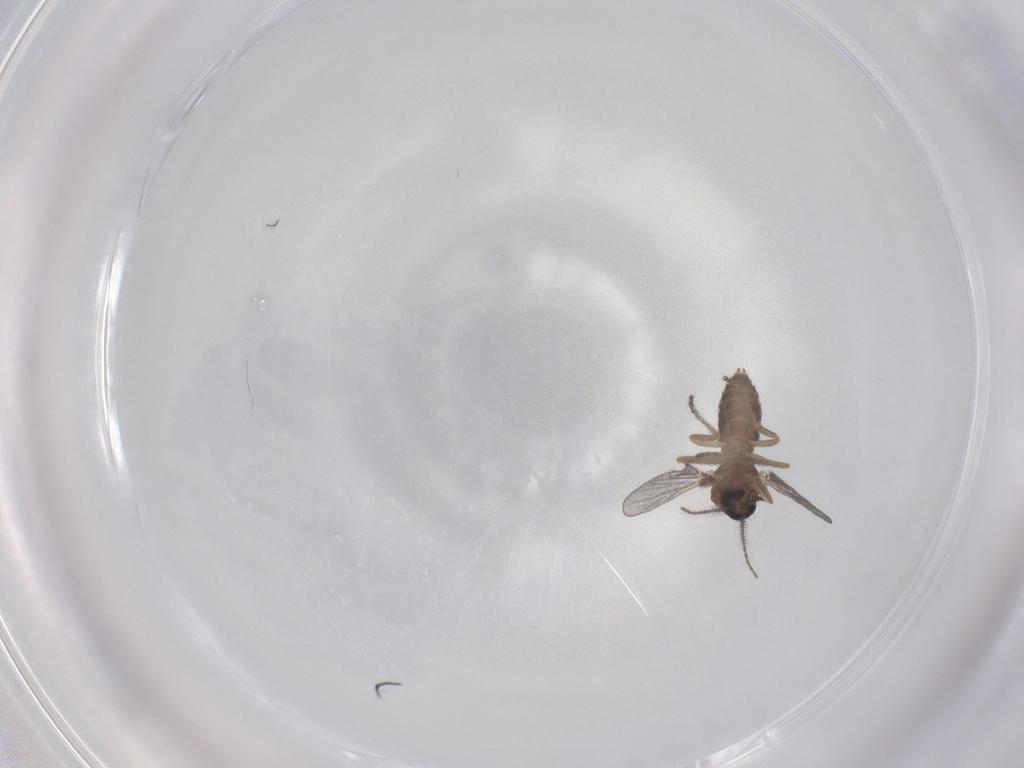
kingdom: Animalia
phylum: Arthropoda
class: Insecta
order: Diptera
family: Ceratopogonidae
